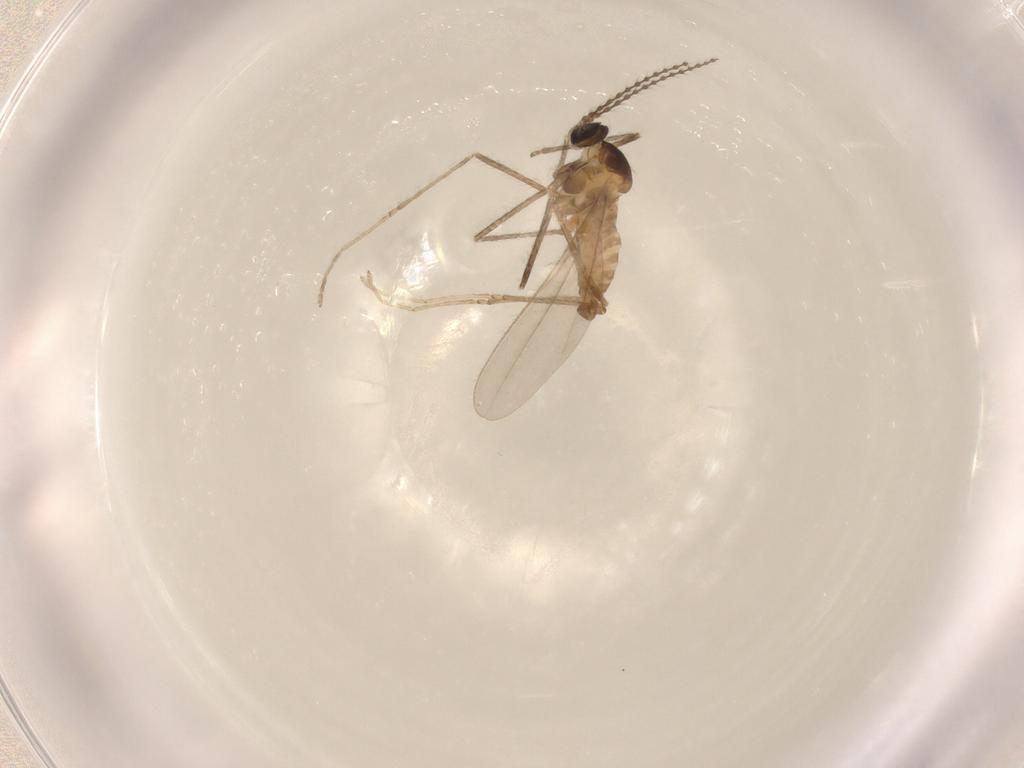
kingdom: Animalia
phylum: Arthropoda
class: Insecta
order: Diptera
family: Cecidomyiidae
